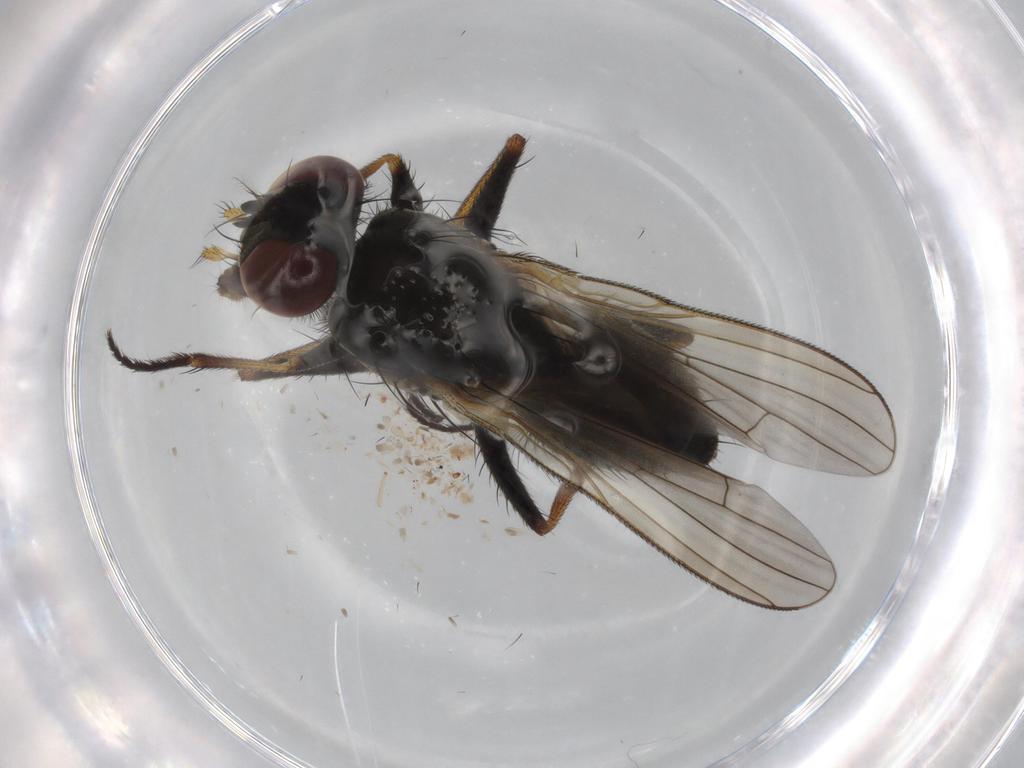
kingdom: Animalia
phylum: Arthropoda
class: Insecta
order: Diptera
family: Muscidae
